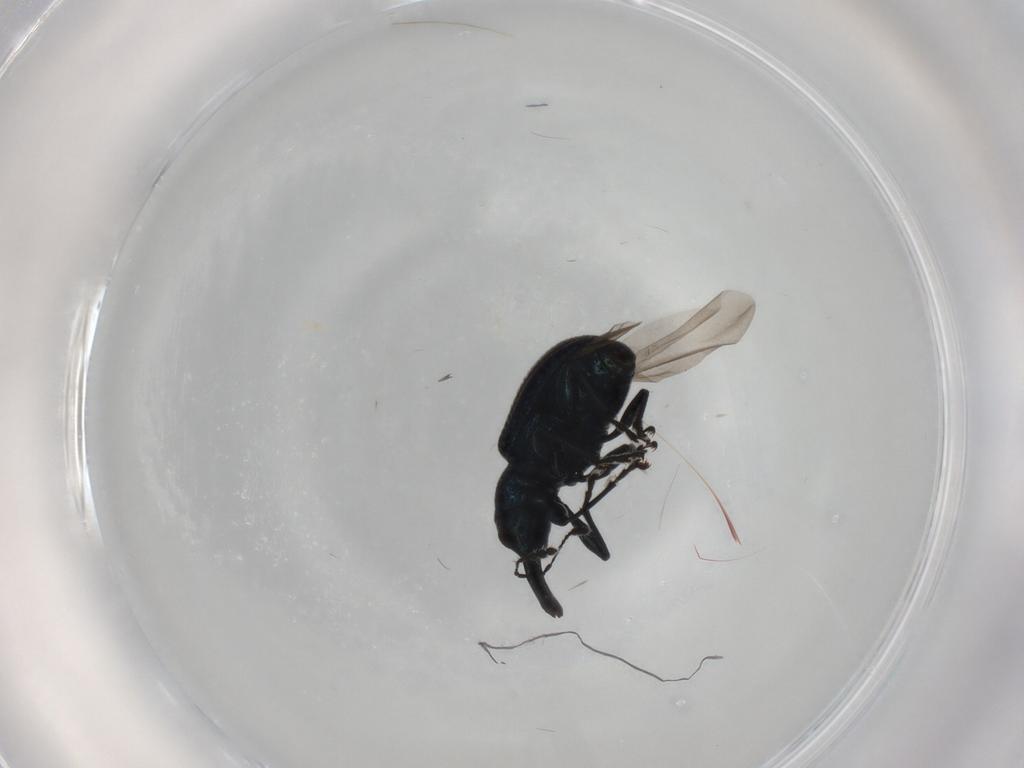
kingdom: Animalia
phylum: Arthropoda
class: Insecta
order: Coleoptera
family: Attelabidae
